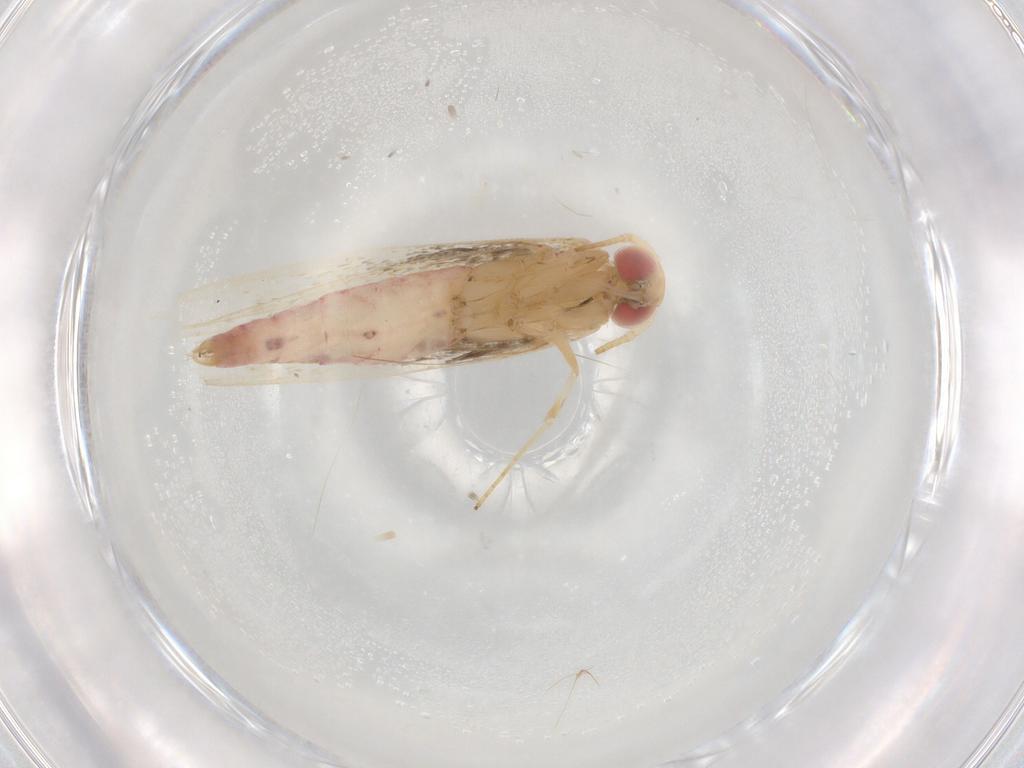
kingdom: Animalia
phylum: Arthropoda
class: Insecta
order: Lepidoptera
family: Cosmopterigidae
